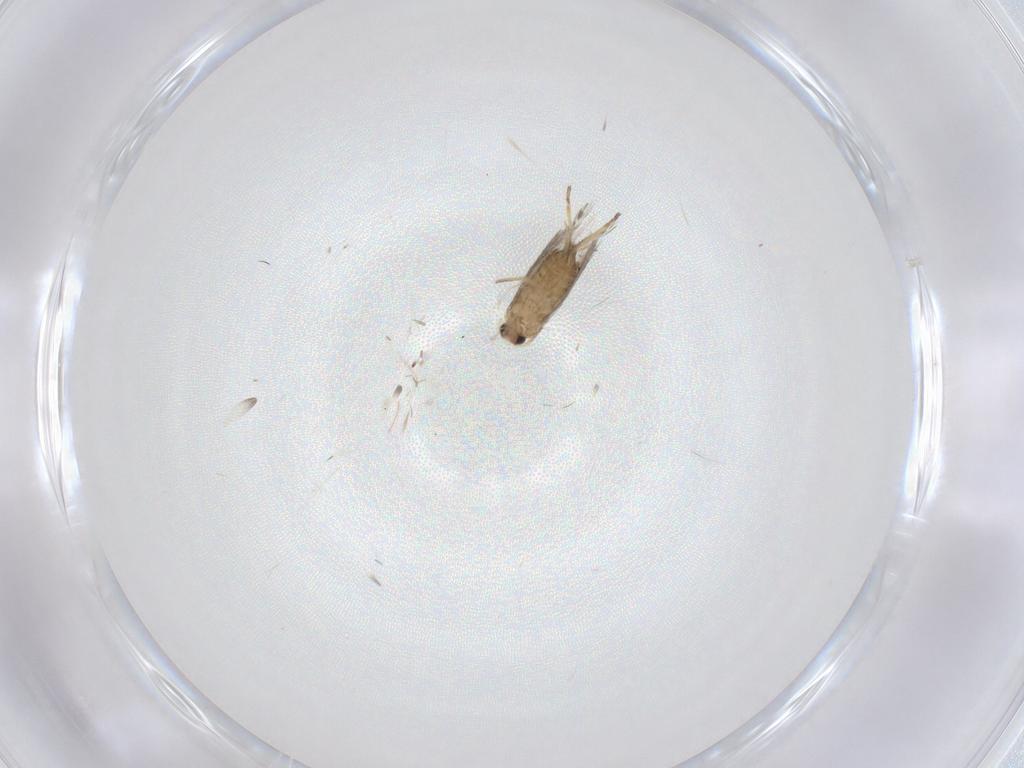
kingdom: Animalia
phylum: Arthropoda
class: Insecta
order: Lepidoptera
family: Nepticulidae
